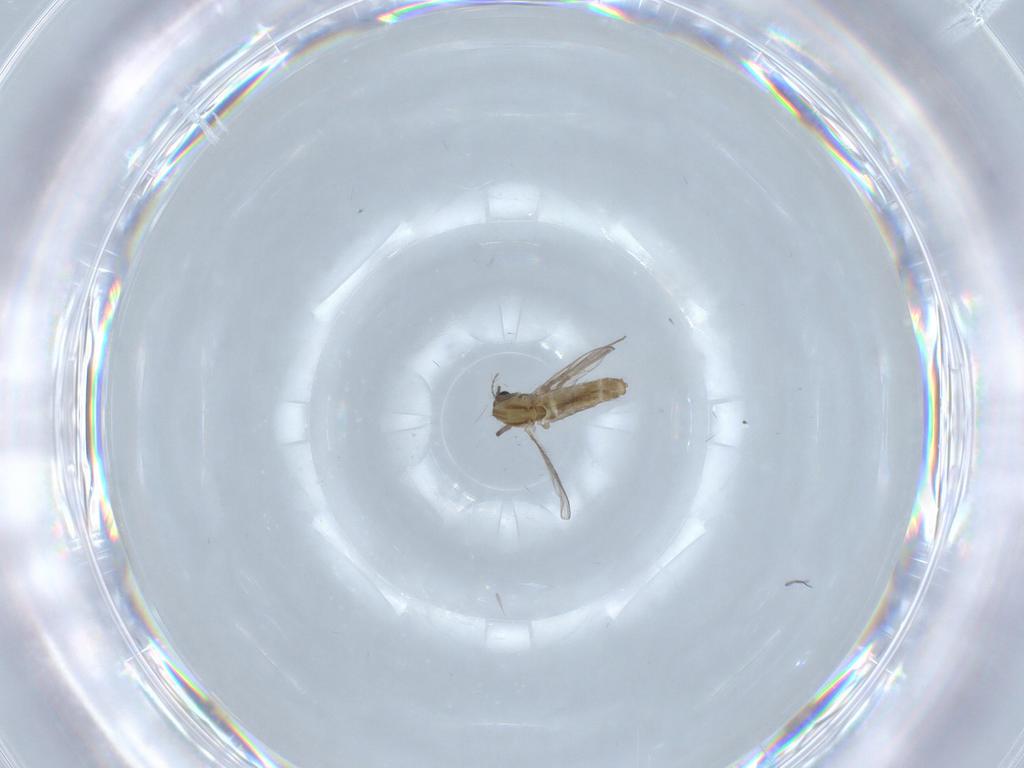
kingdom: Animalia
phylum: Arthropoda
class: Insecta
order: Diptera
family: Chironomidae
